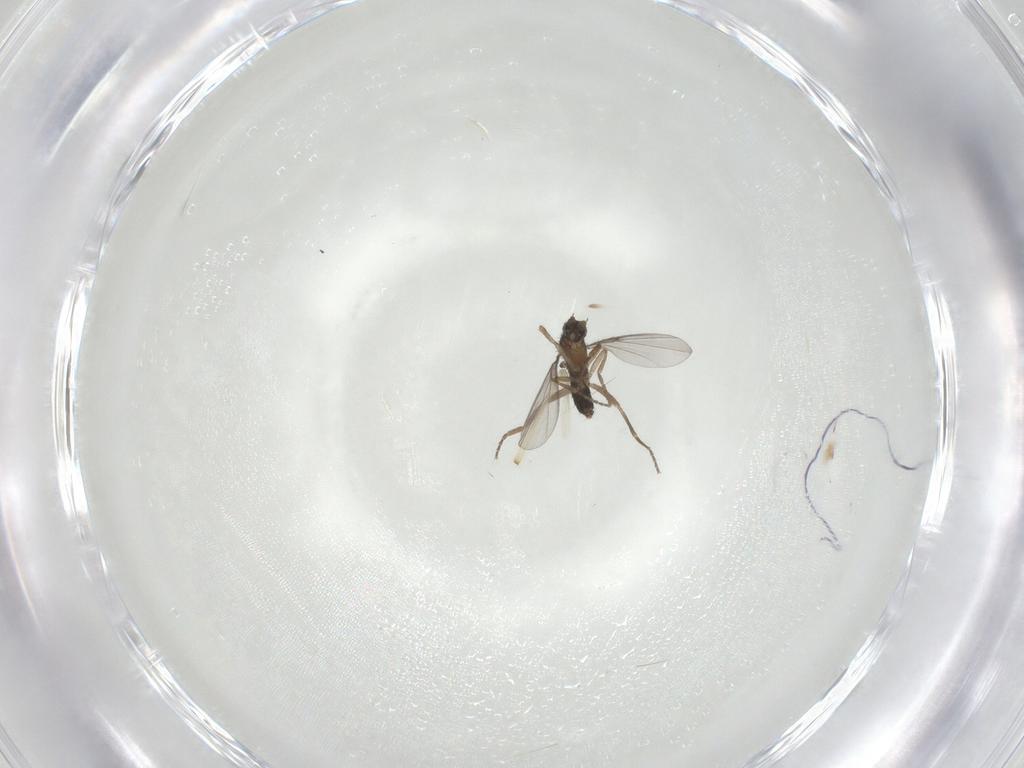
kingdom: Animalia
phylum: Arthropoda
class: Insecta
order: Diptera
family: Phoridae
